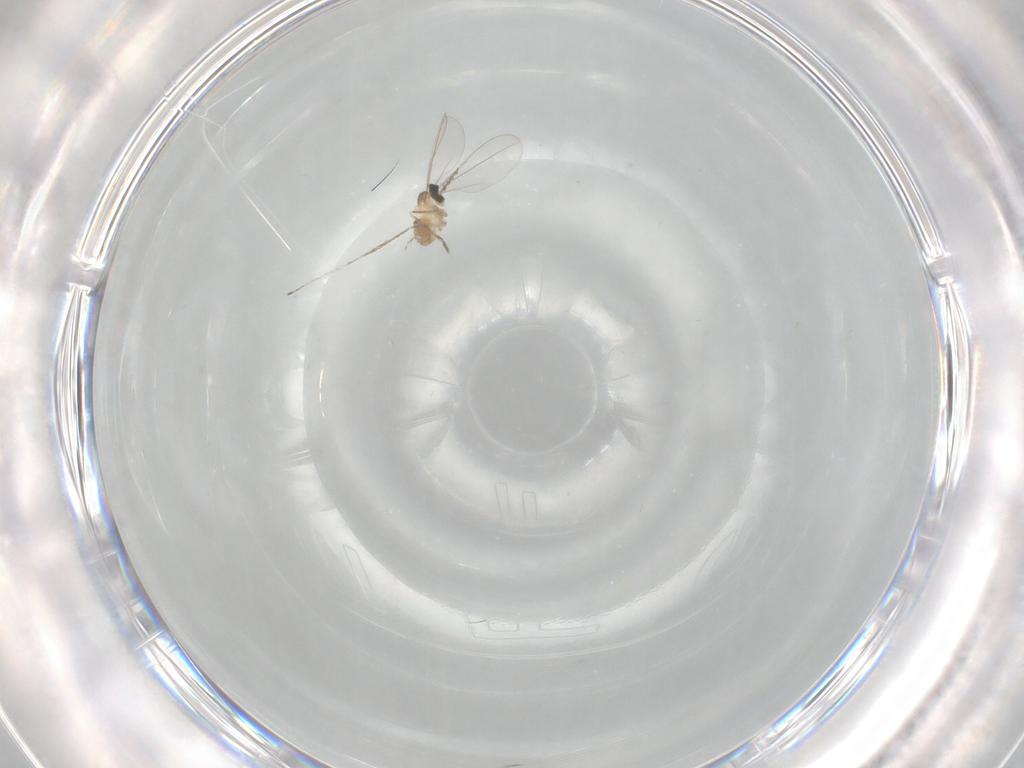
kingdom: Animalia
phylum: Arthropoda
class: Insecta
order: Diptera
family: Cecidomyiidae
